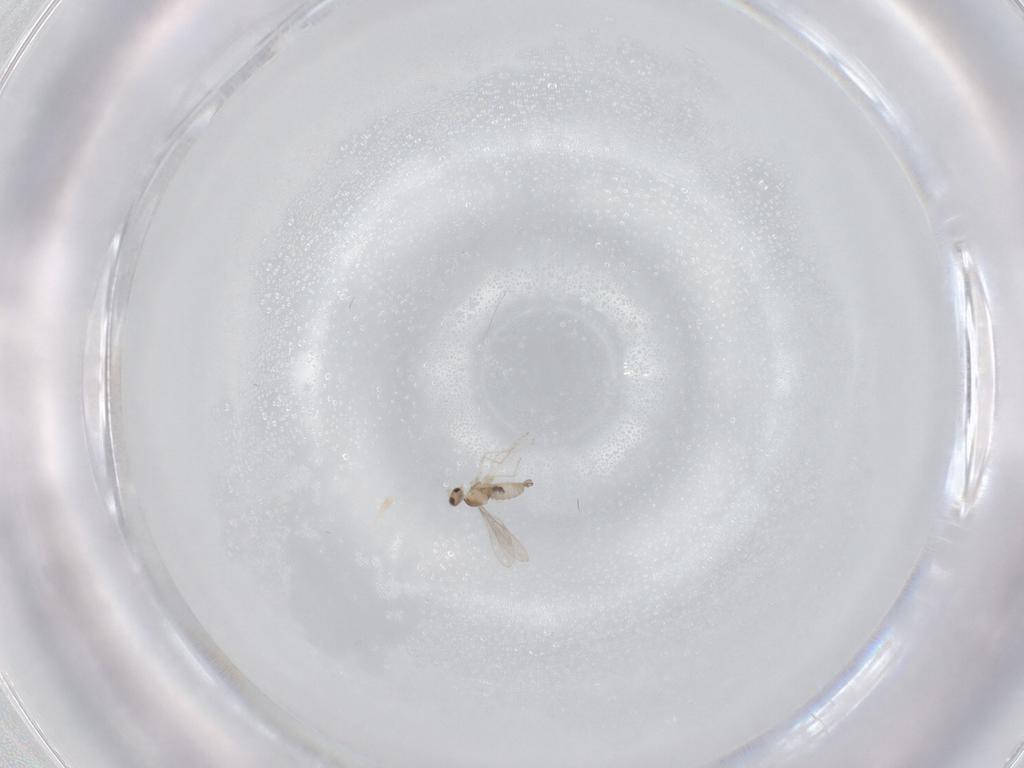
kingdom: Animalia
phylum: Arthropoda
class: Insecta
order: Diptera
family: Cecidomyiidae
